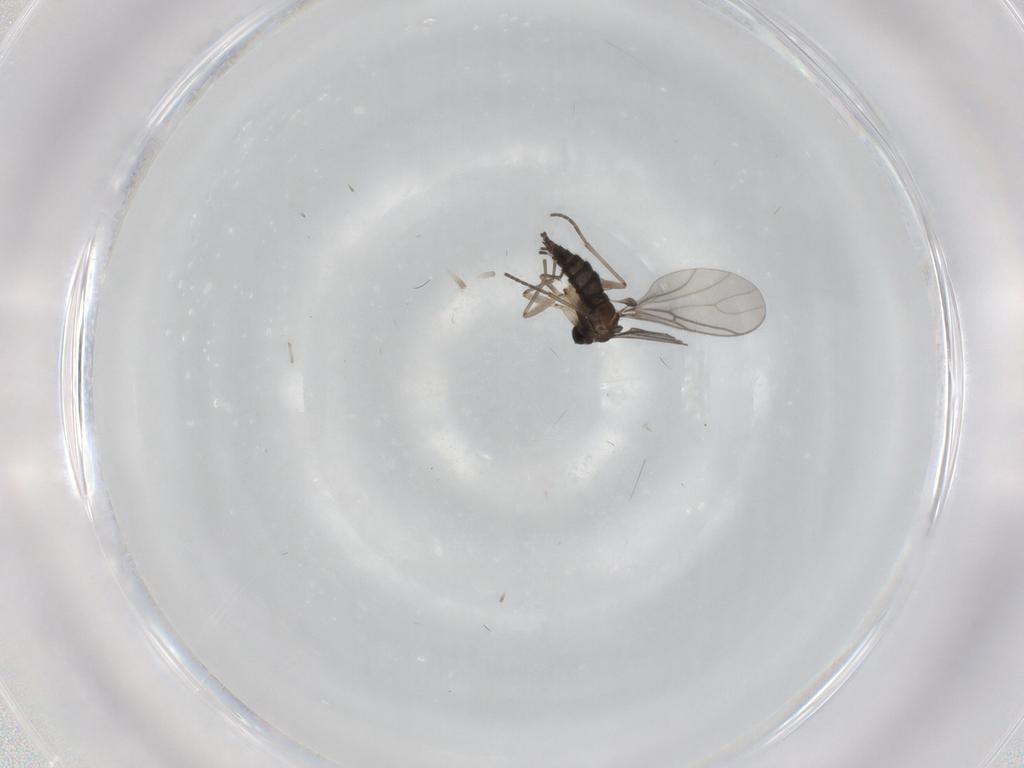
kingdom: Animalia
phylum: Arthropoda
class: Insecta
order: Diptera
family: Sciaridae
